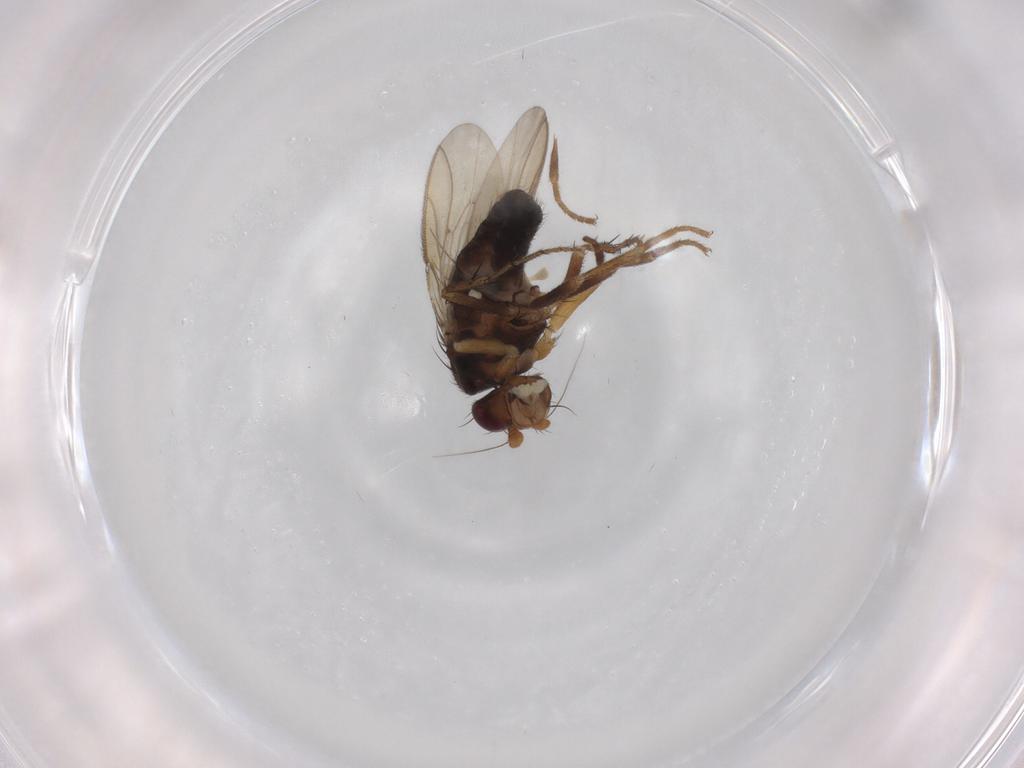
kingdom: Animalia
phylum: Arthropoda
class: Insecta
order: Diptera
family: Sphaeroceridae
